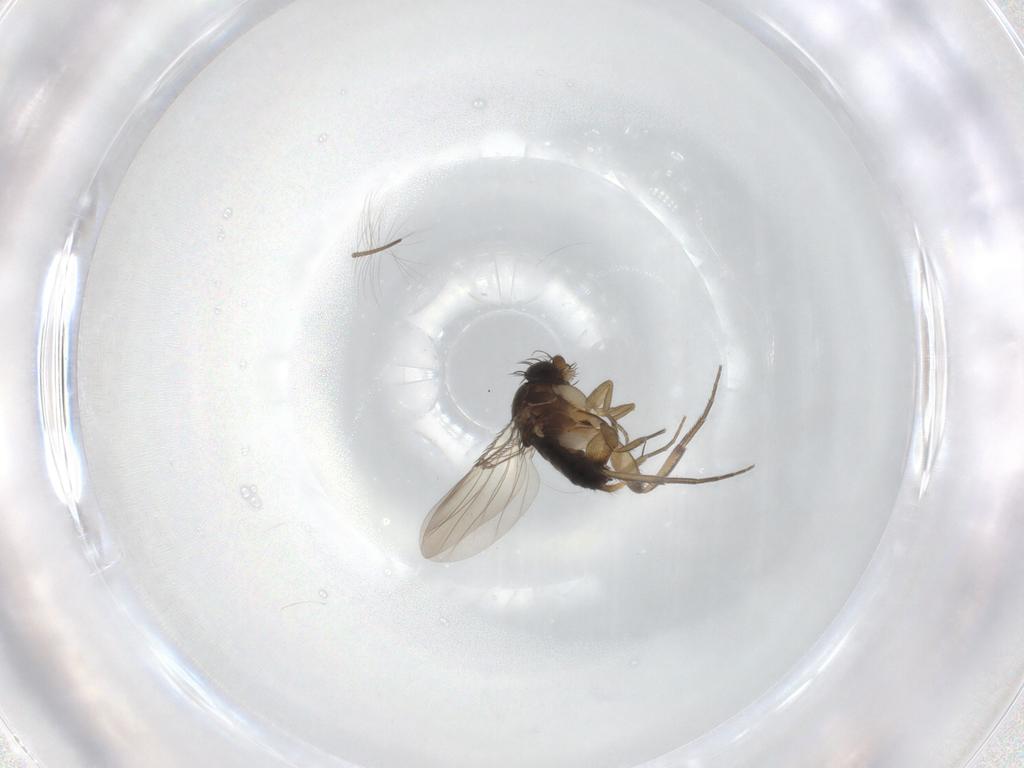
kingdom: Animalia
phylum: Arthropoda
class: Insecta
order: Diptera
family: Phoridae
